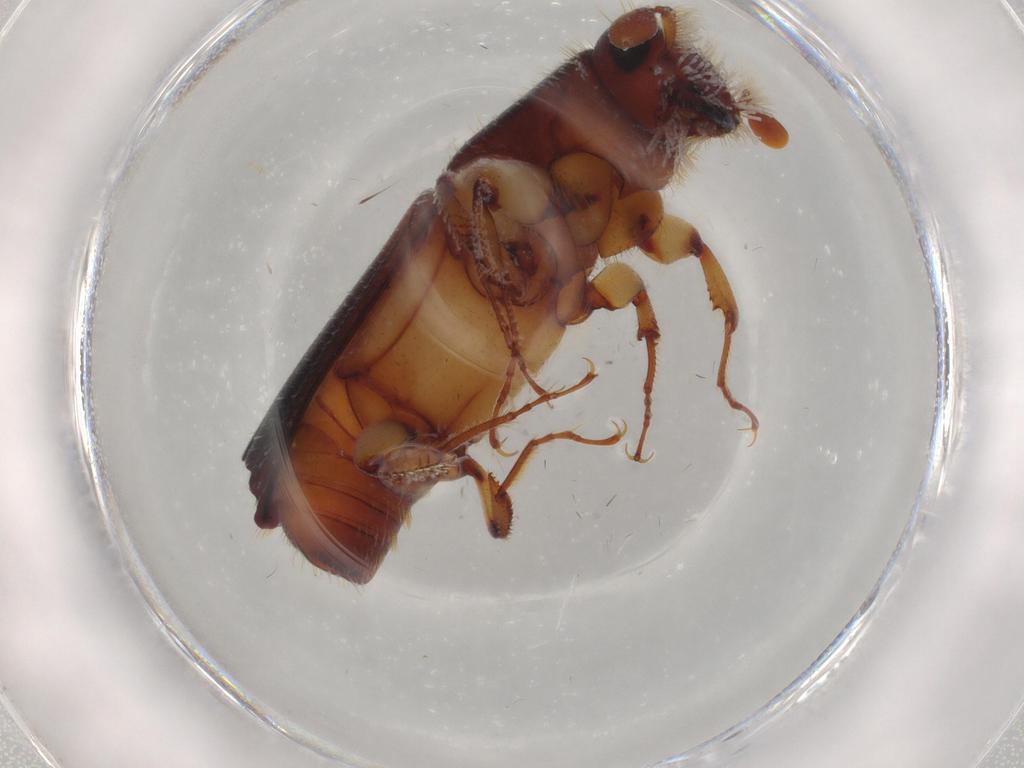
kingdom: Animalia
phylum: Arthropoda
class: Insecta
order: Coleoptera
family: Curculionidae
